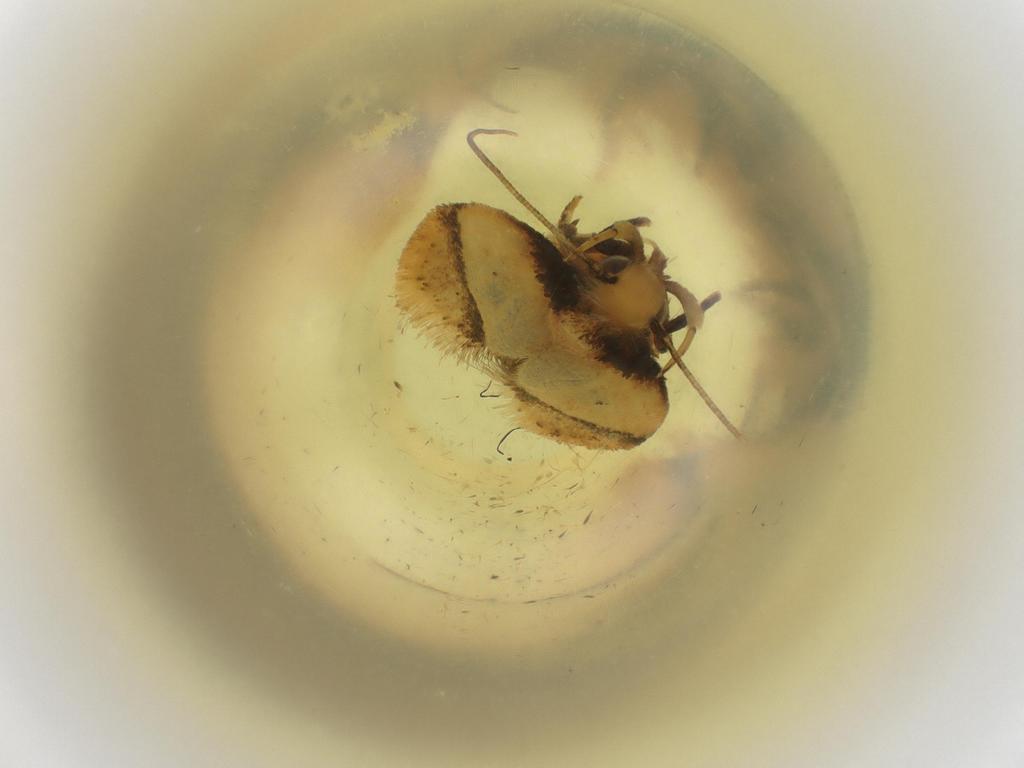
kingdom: Animalia
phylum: Arthropoda
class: Insecta
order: Lepidoptera
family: Depressariidae
